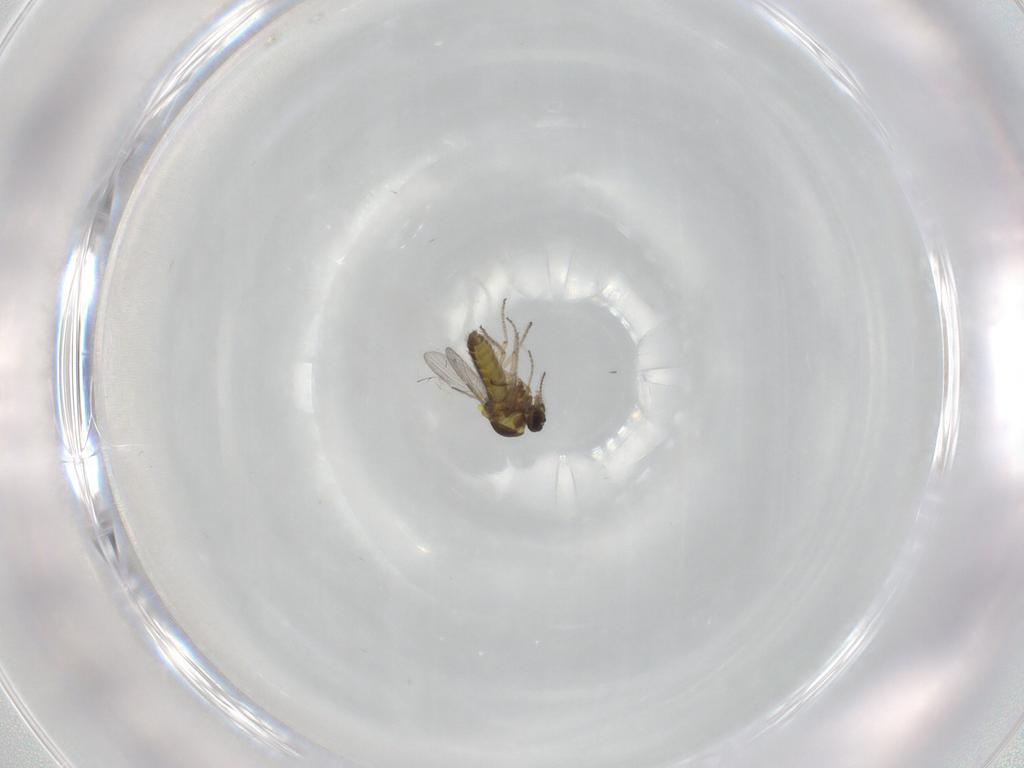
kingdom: Animalia
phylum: Arthropoda
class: Insecta
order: Diptera
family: Ceratopogonidae
